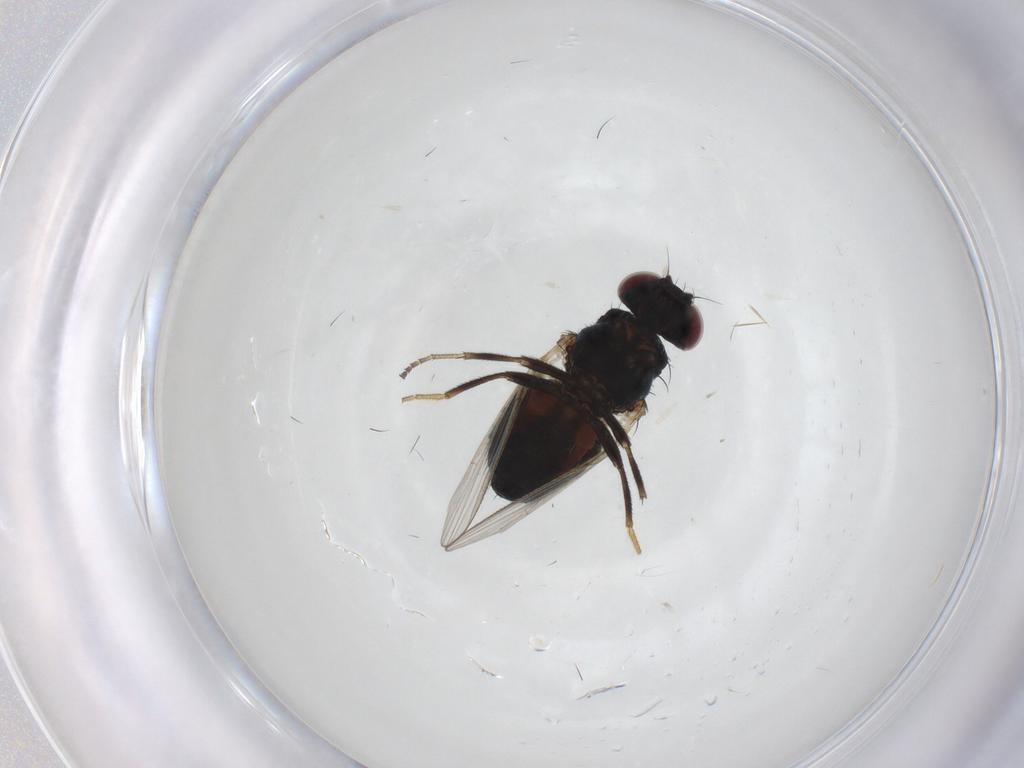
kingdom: Animalia
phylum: Arthropoda
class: Insecta
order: Diptera
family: Carnidae
